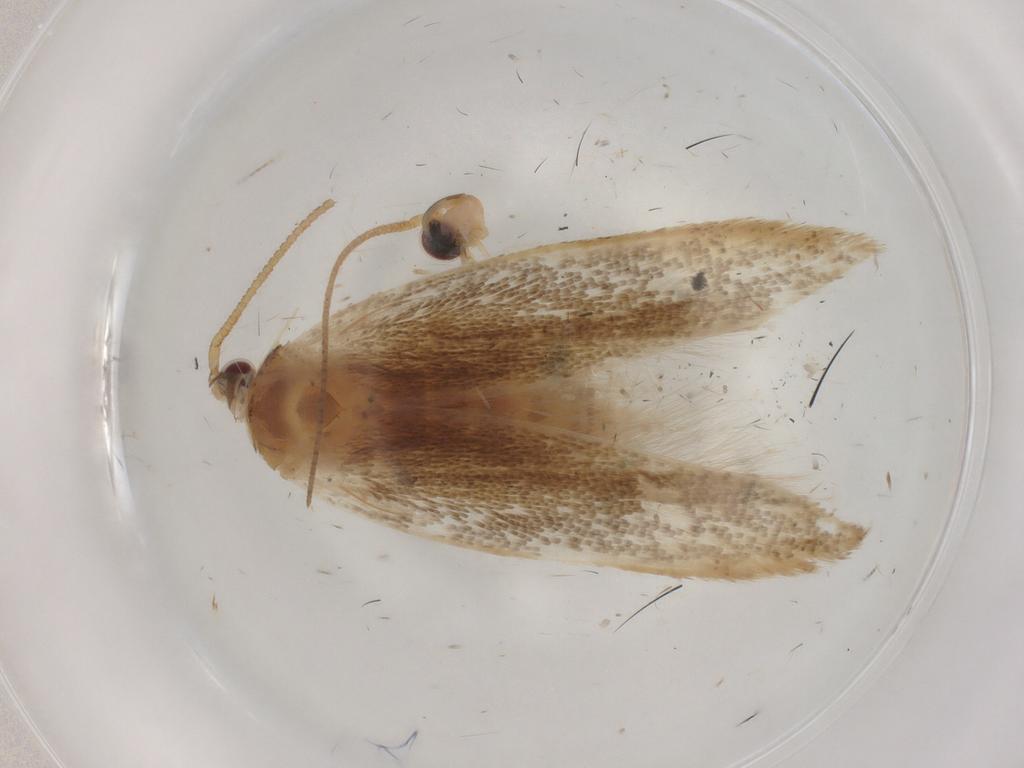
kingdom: Animalia
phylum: Arthropoda
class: Insecta
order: Lepidoptera
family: Gelechiidae
